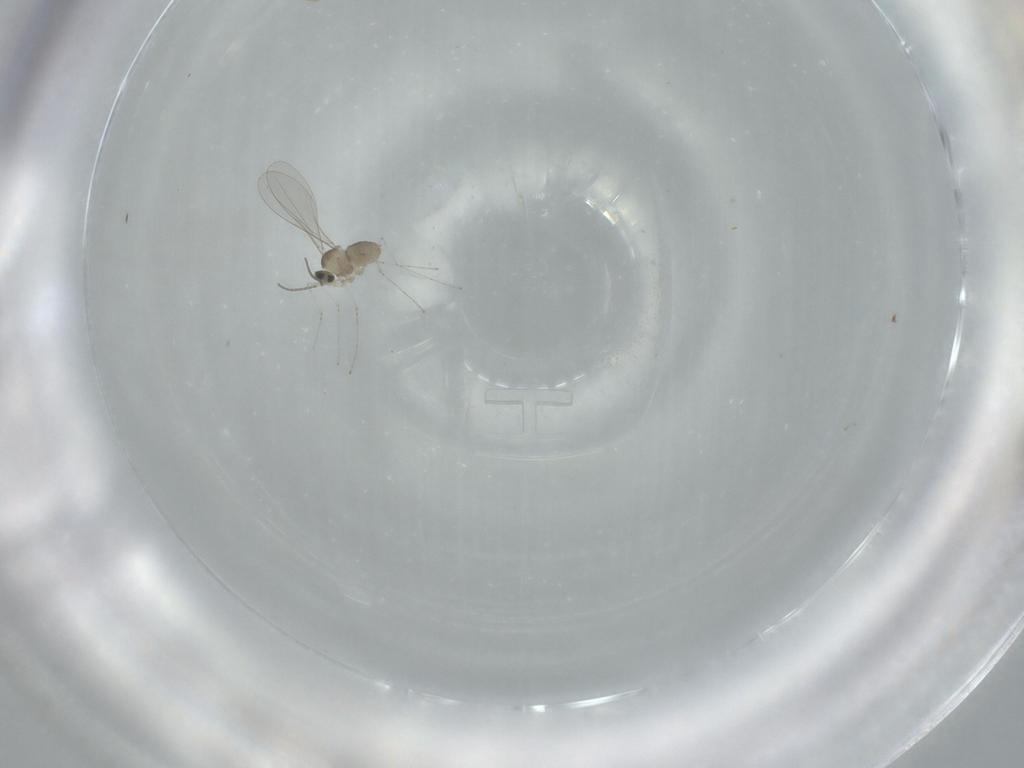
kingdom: Animalia
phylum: Arthropoda
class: Insecta
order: Diptera
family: Cecidomyiidae
